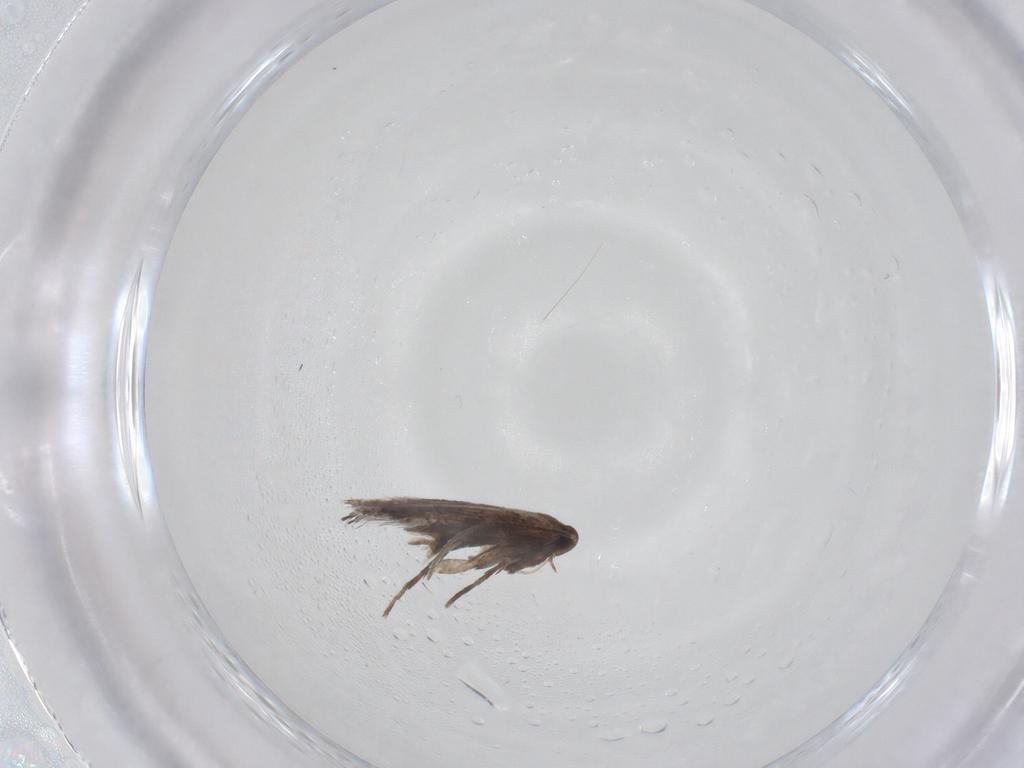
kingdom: Animalia
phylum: Arthropoda
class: Insecta
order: Lepidoptera
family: Gracillariidae
